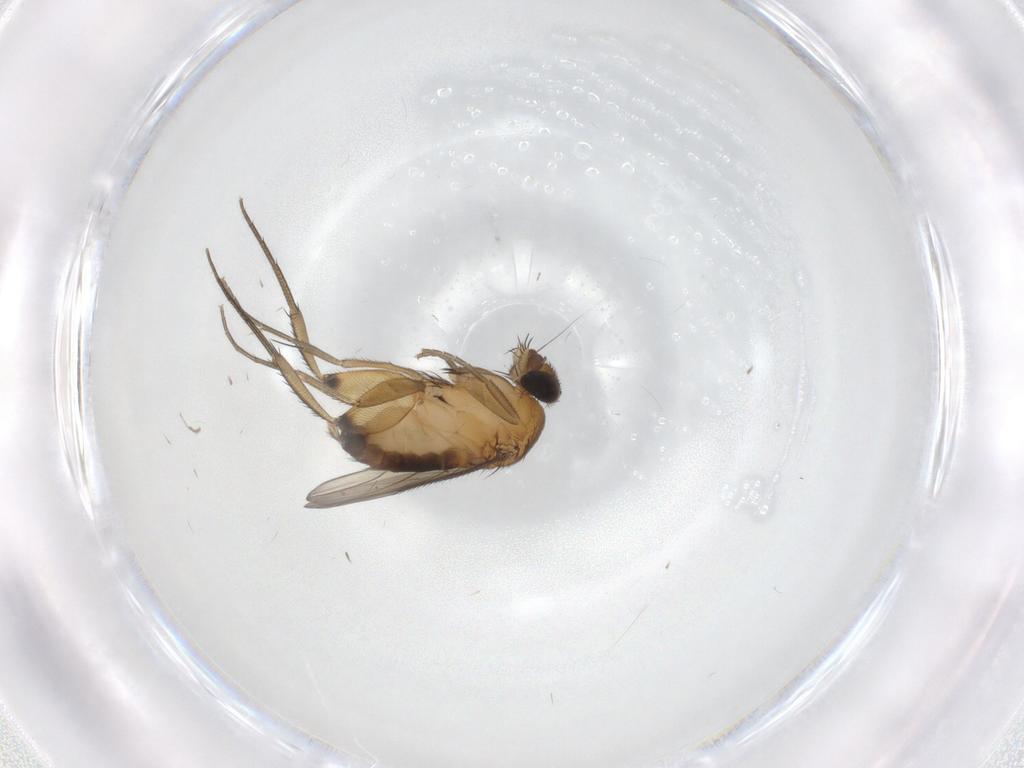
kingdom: Animalia
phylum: Arthropoda
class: Insecta
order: Diptera
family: Phoridae
